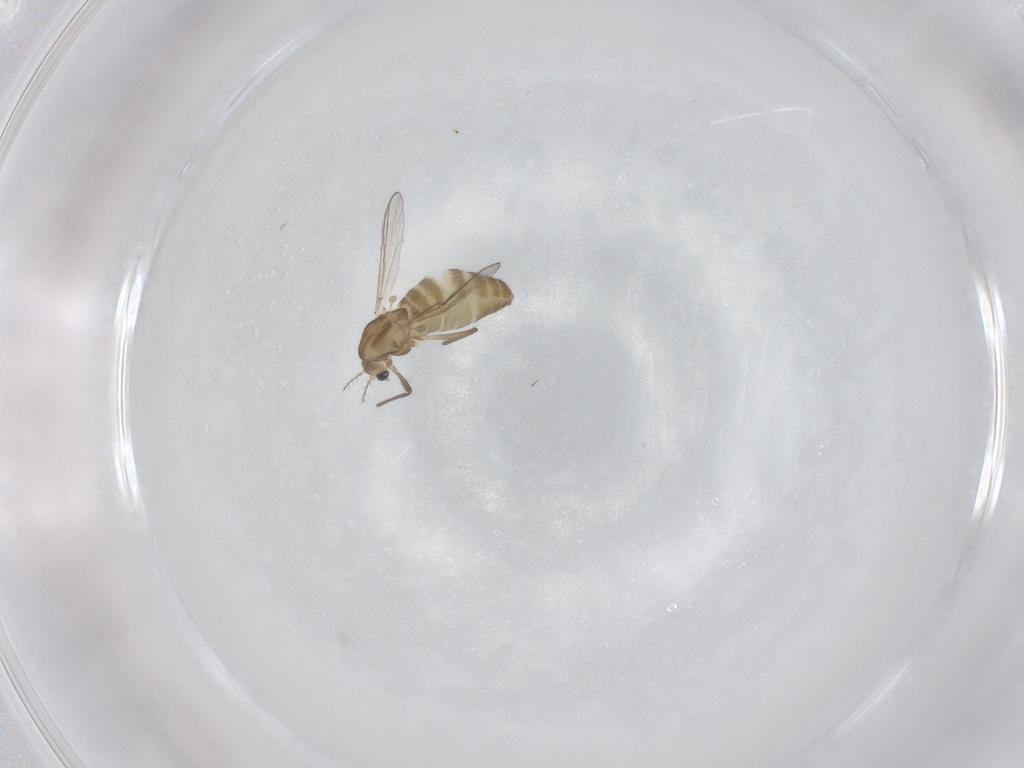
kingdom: Animalia
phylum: Arthropoda
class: Insecta
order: Diptera
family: Chironomidae
